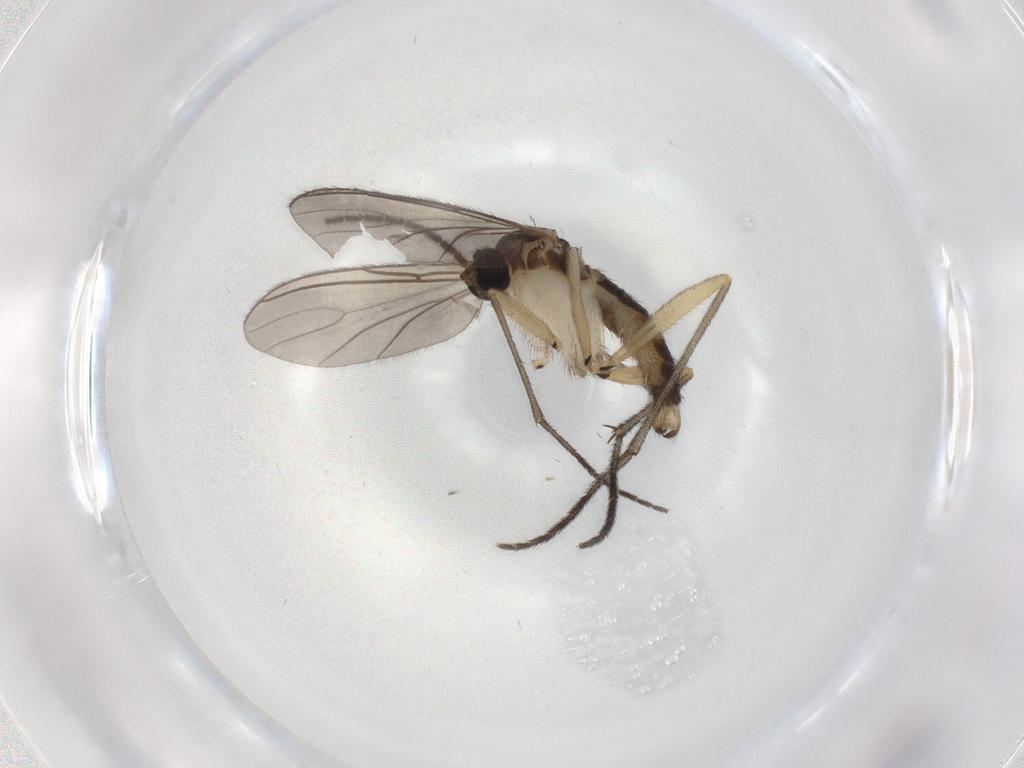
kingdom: Animalia
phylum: Arthropoda
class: Insecta
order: Diptera
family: Sciaridae
